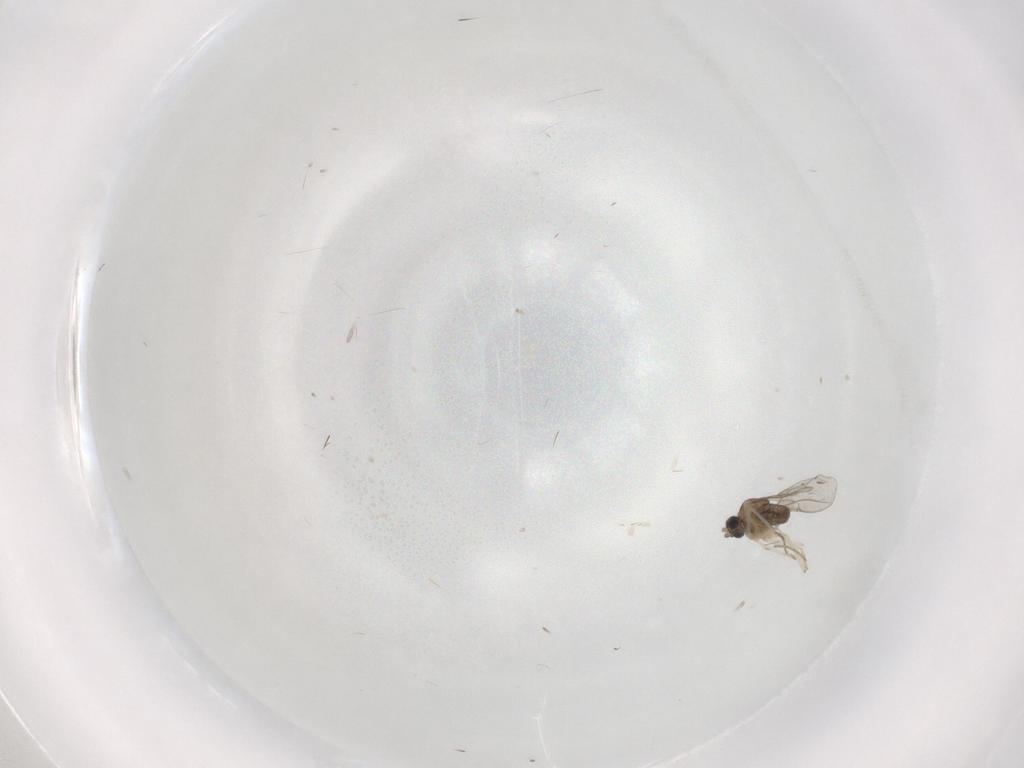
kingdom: Animalia
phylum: Arthropoda
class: Insecta
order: Diptera
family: Cecidomyiidae
